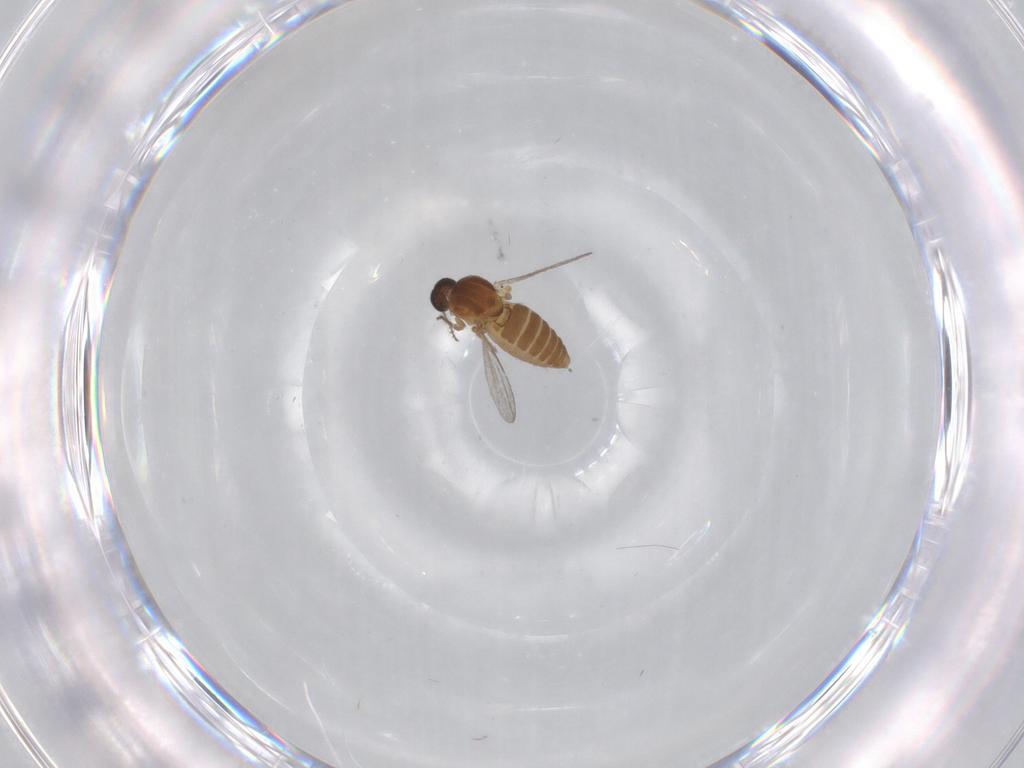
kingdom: Animalia
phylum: Arthropoda
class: Insecta
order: Diptera
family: Ceratopogonidae
